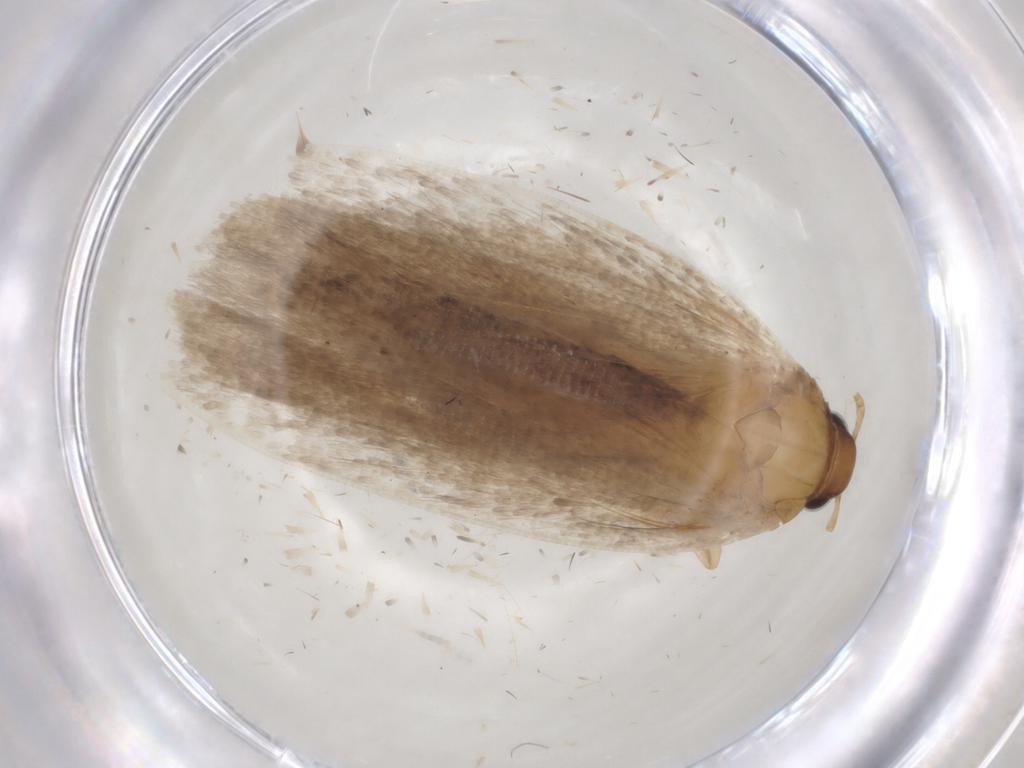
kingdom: Animalia
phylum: Arthropoda
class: Insecta
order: Lepidoptera
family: Gelechiidae
